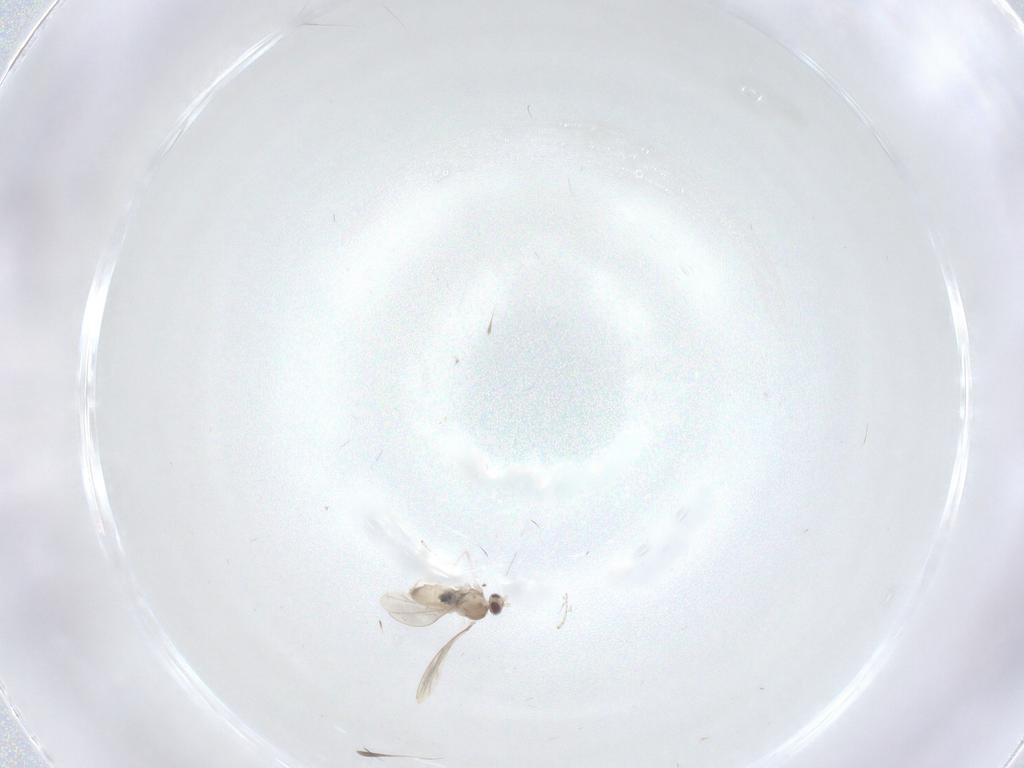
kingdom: Animalia
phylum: Arthropoda
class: Insecta
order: Diptera
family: Cecidomyiidae
